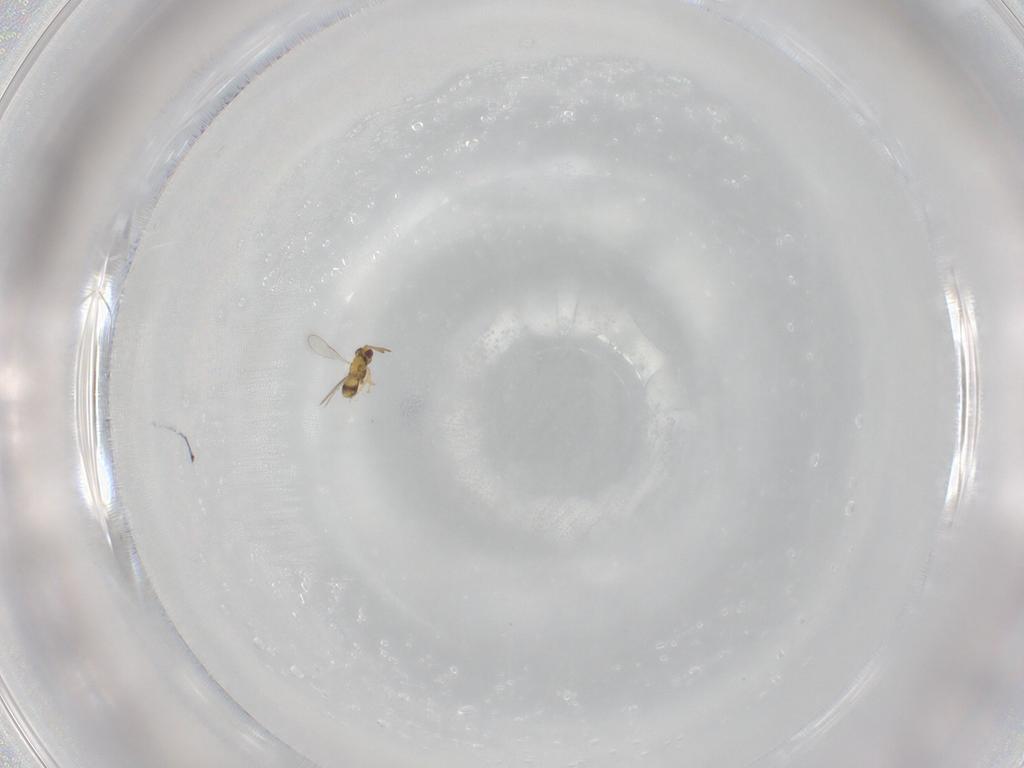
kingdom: Animalia
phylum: Arthropoda
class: Insecta
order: Hymenoptera
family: Aphelinidae
